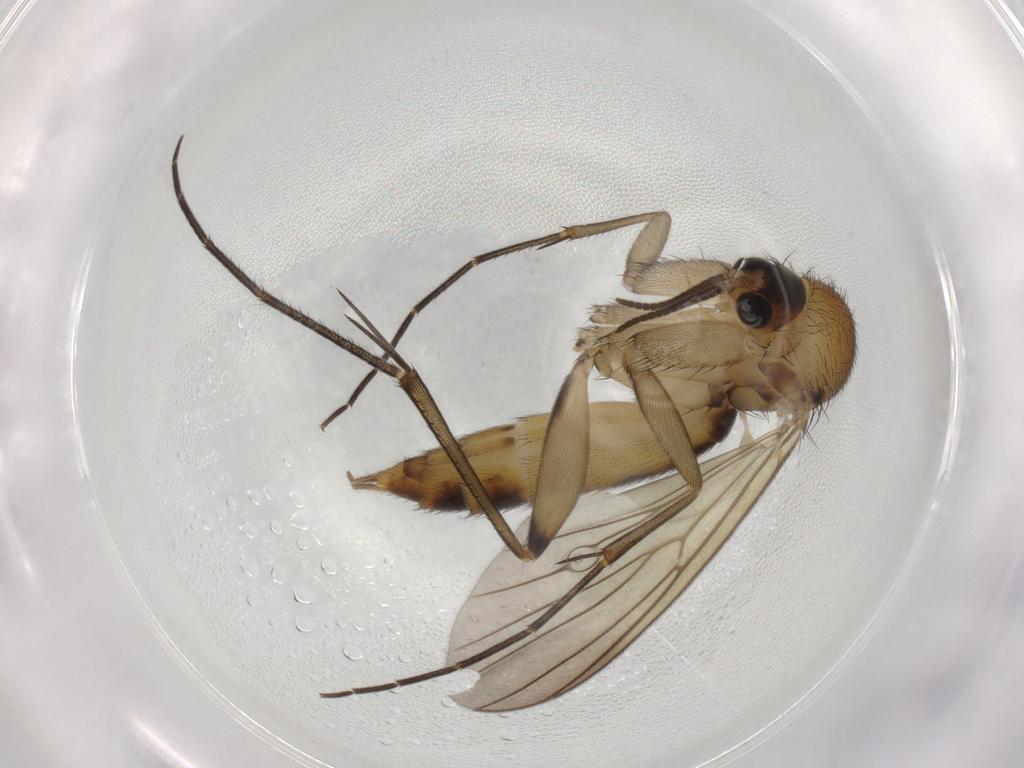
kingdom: Animalia
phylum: Arthropoda
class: Insecta
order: Diptera
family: Mycetophilidae
